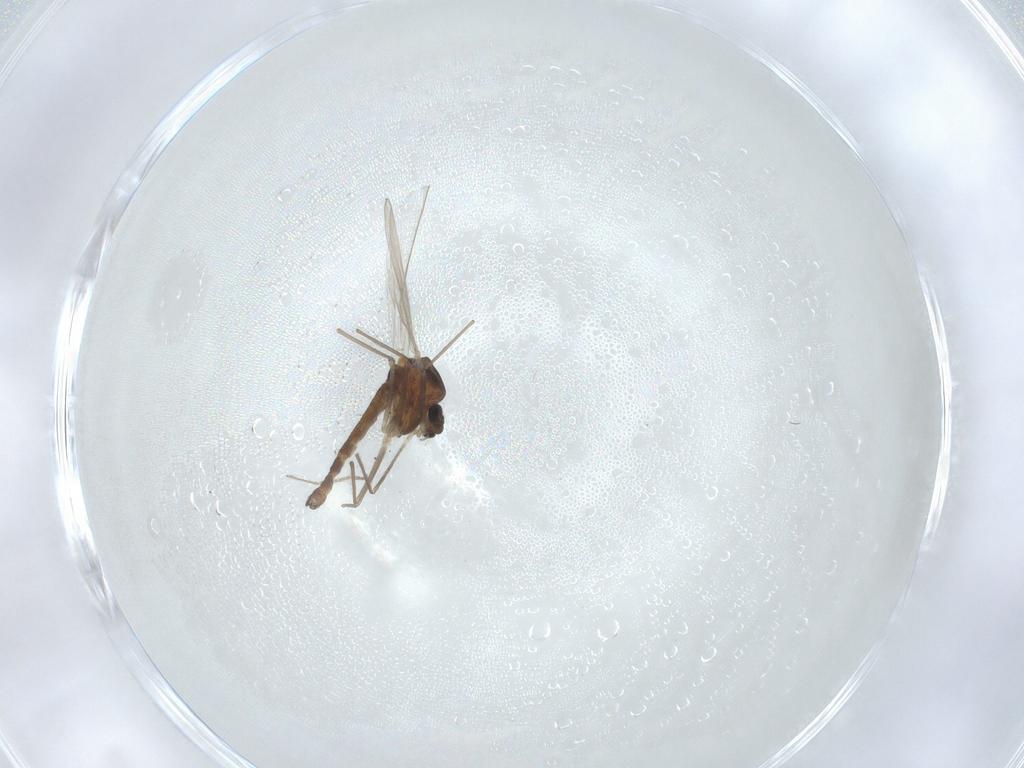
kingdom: Animalia
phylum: Arthropoda
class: Insecta
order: Diptera
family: Chironomidae
